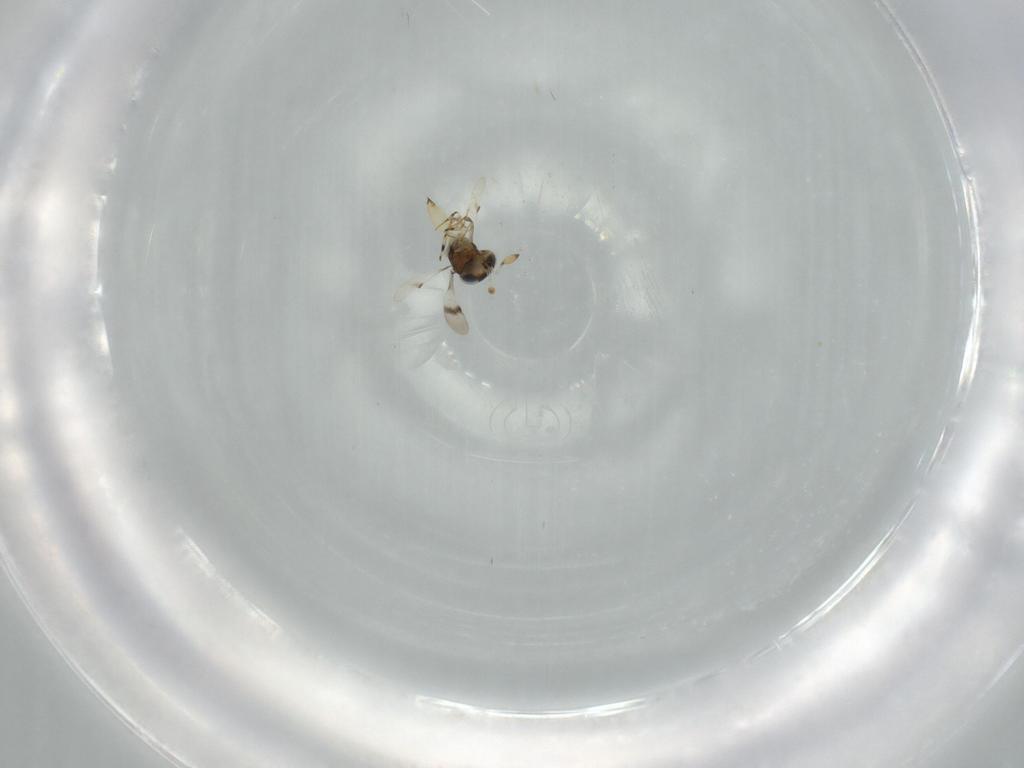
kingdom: Animalia
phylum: Arthropoda
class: Insecta
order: Hymenoptera
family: Scelionidae
